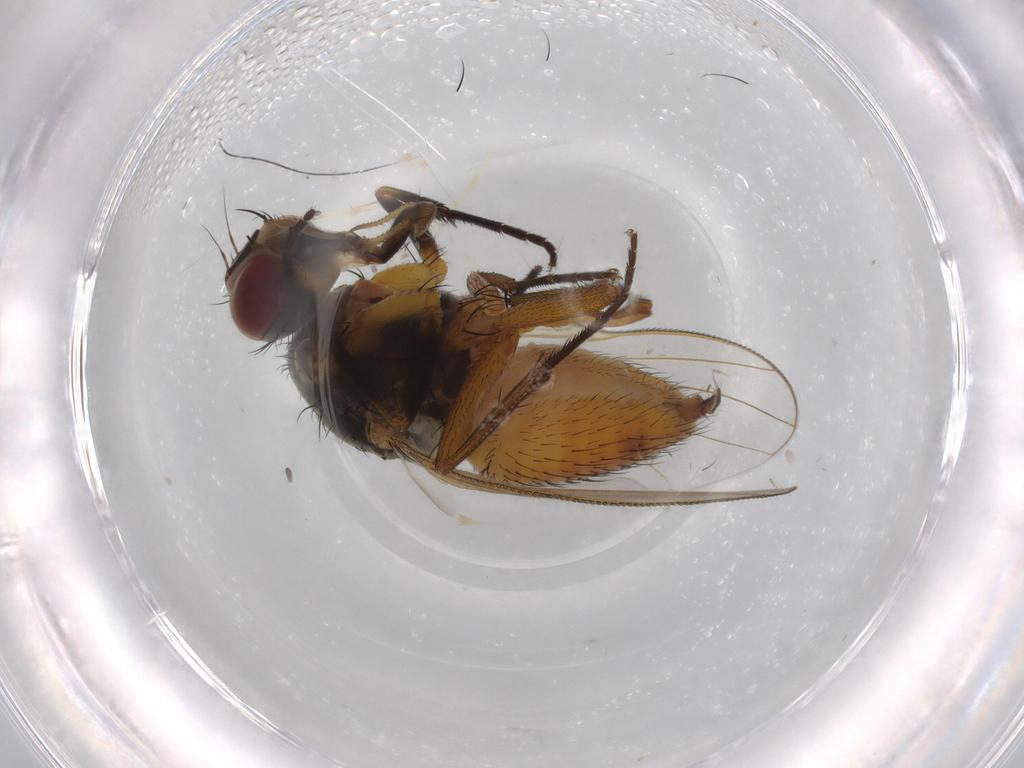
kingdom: Animalia
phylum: Arthropoda
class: Insecta
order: Diptera
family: Muscidae
